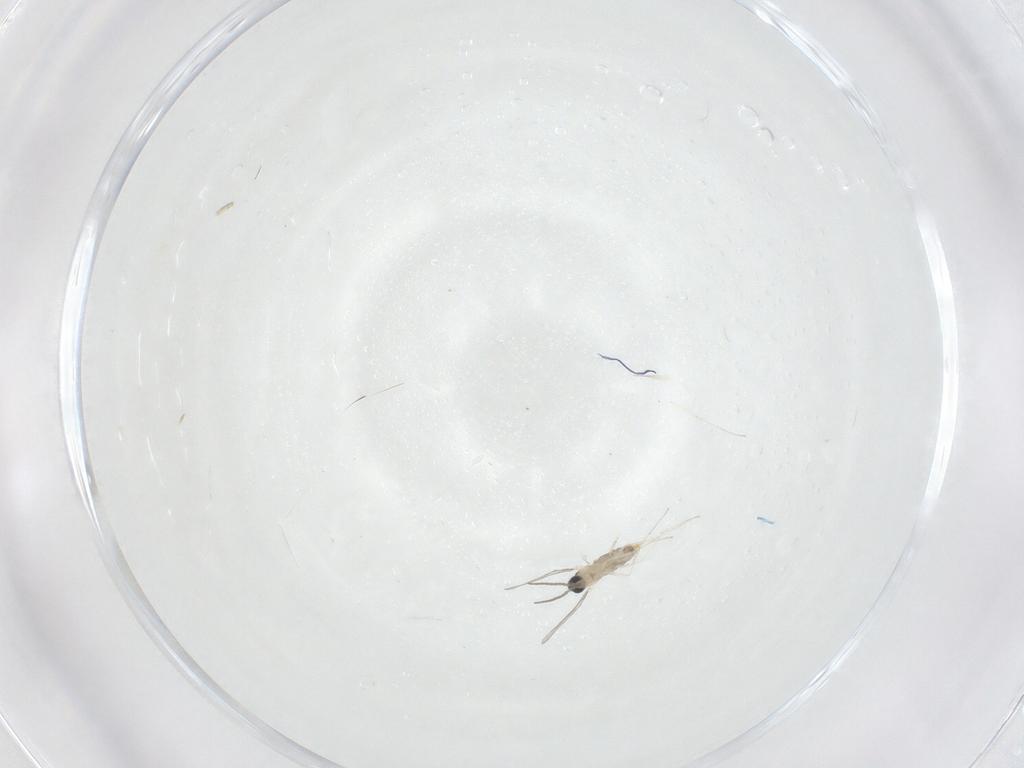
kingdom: Animalia
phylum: Arthropoda
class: Insecta
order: Diptera
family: Cecidomyiidae
